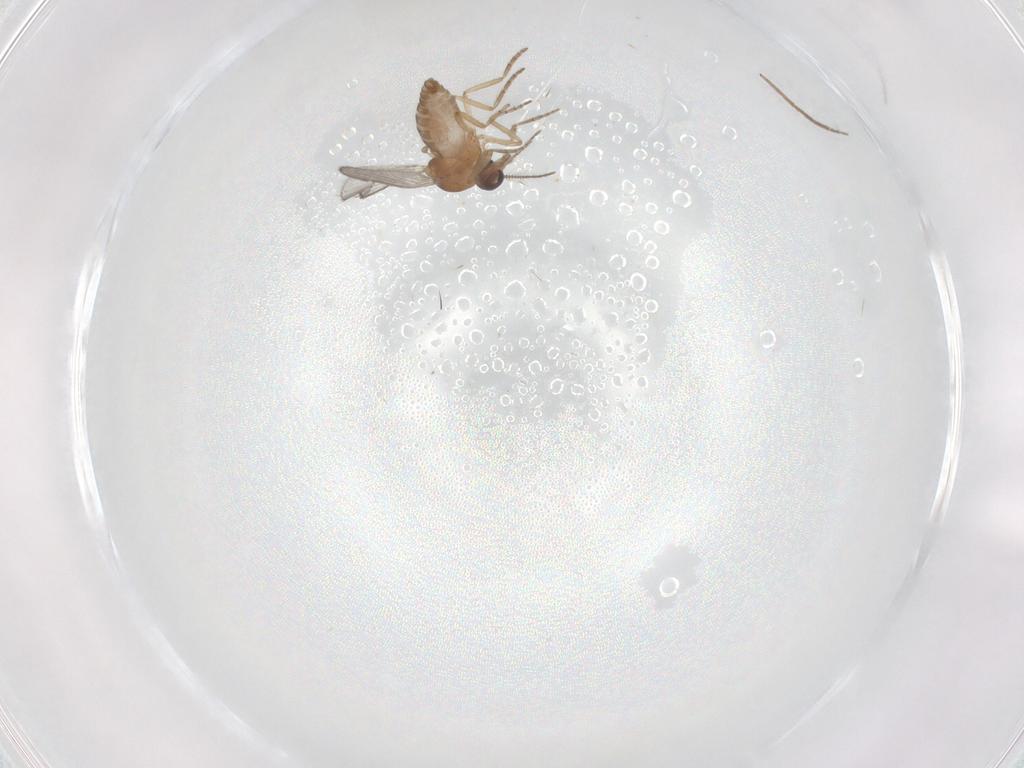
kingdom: Animalia
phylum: Arthropoda
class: Insecta
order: Diptera
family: Chironomidae
